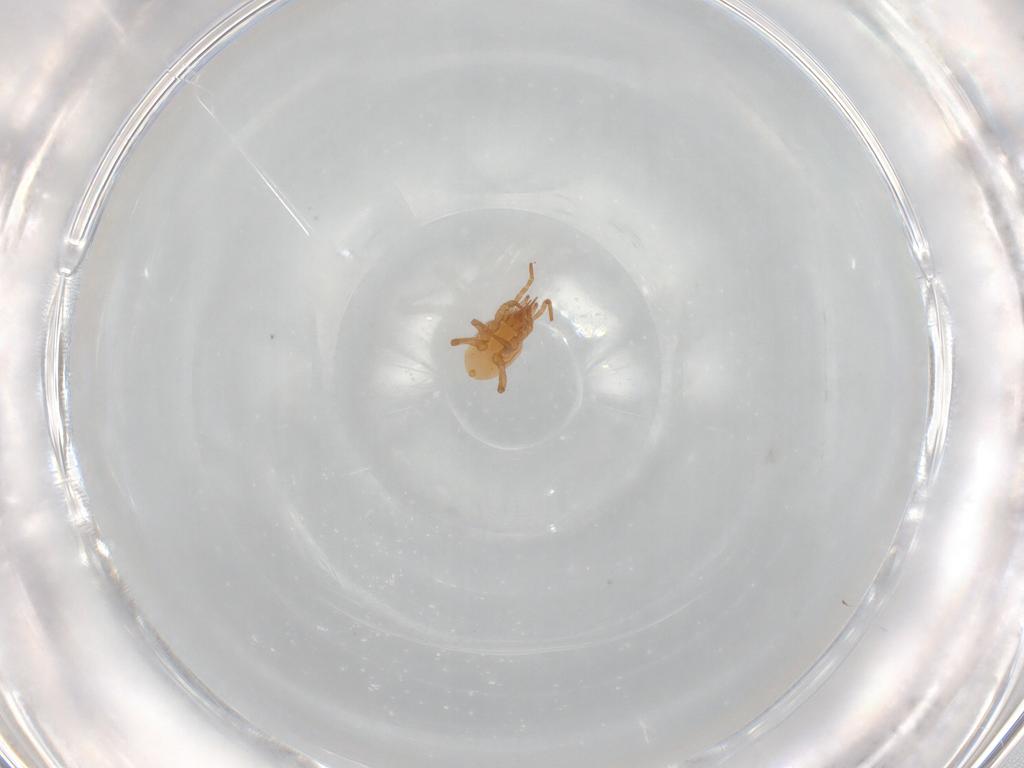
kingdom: Animalia
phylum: Arthropoda
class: Arachnida
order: Mesostigmata
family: Parasitidae
